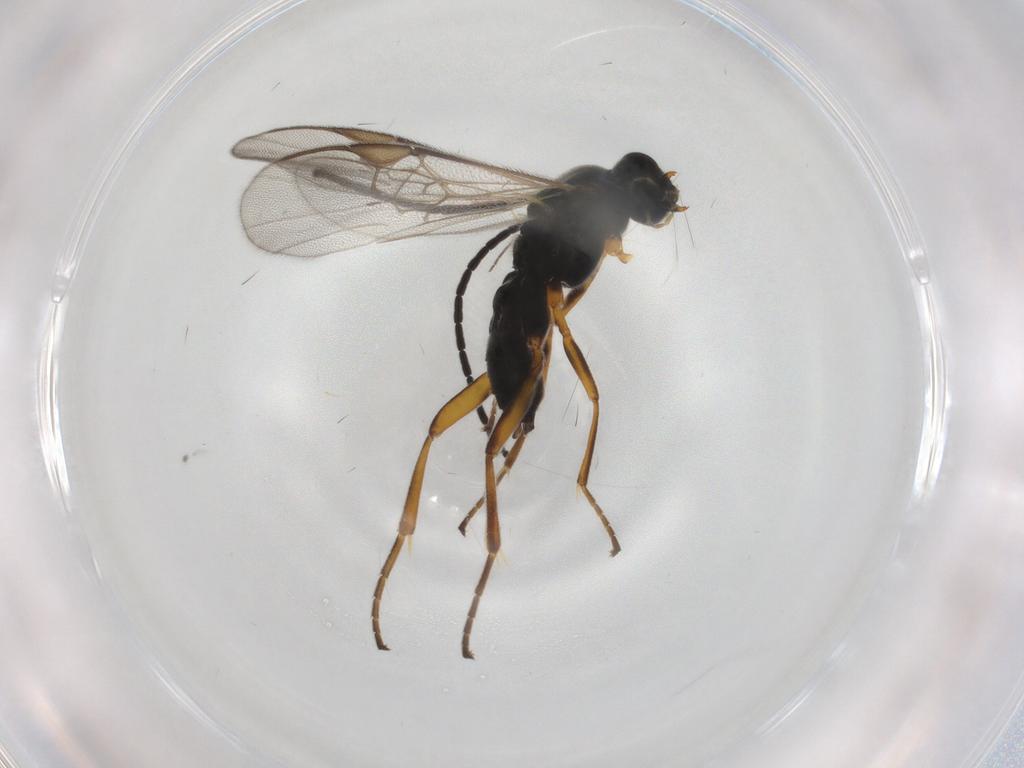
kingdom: Animalia
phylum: Arthropoda
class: Insecta
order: Hymenoptera
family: Braconidae
